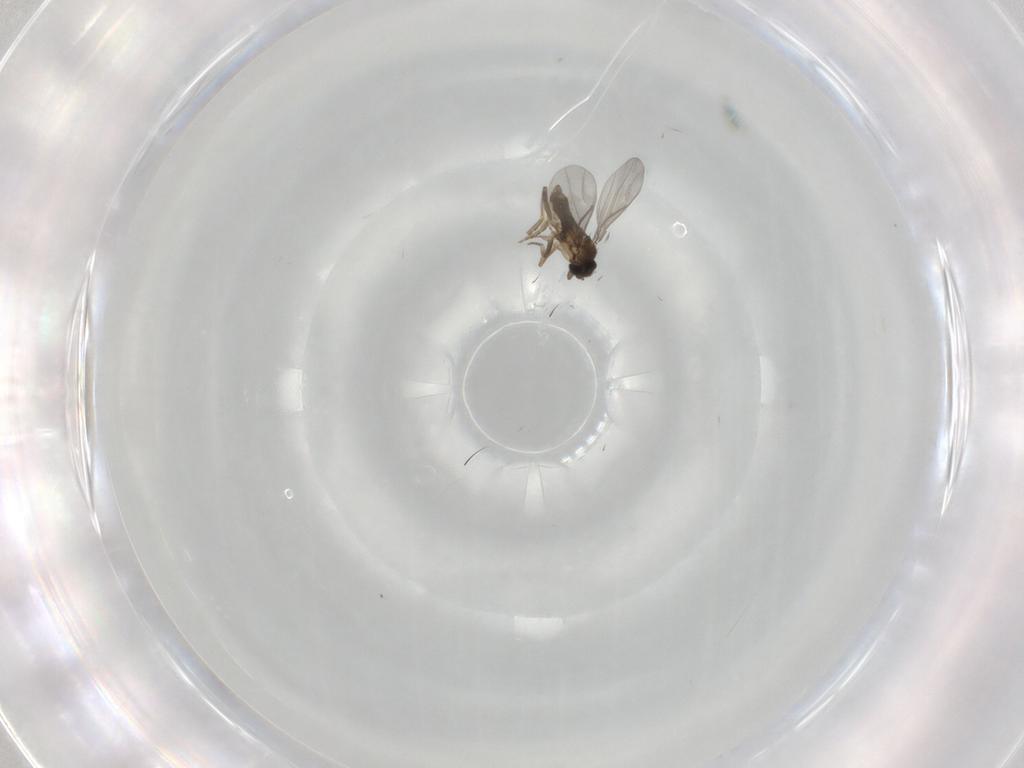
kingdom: Animalia
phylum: Arthropoda
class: Insecta
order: Diptera
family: Micropezidae
